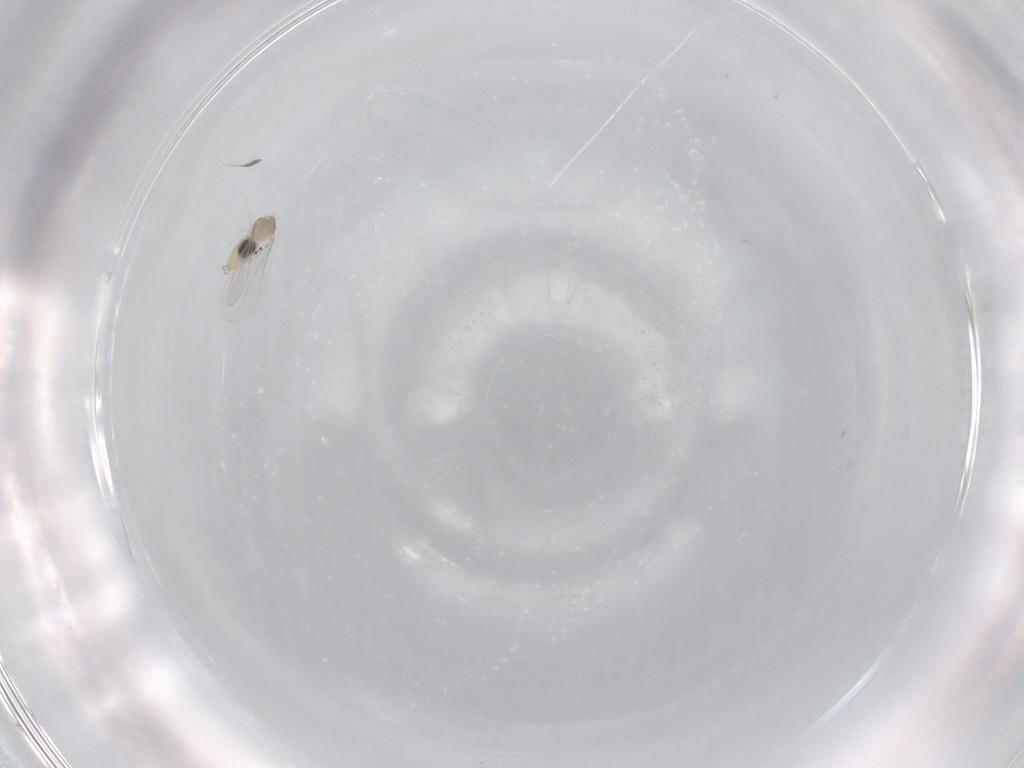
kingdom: Animalia
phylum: Arthropoda
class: Insecta
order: Diptera
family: Cecidomyiidae
